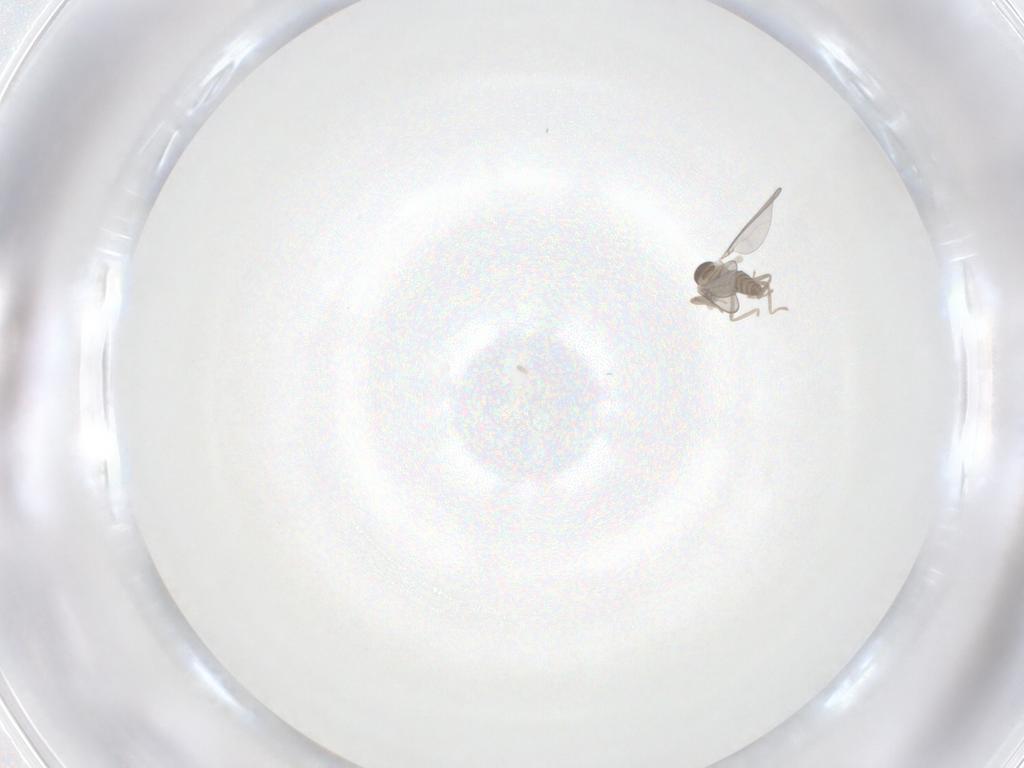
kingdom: Animalia
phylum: Arthropoda
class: Insecta
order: Diptera
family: Cecidomyiidae
